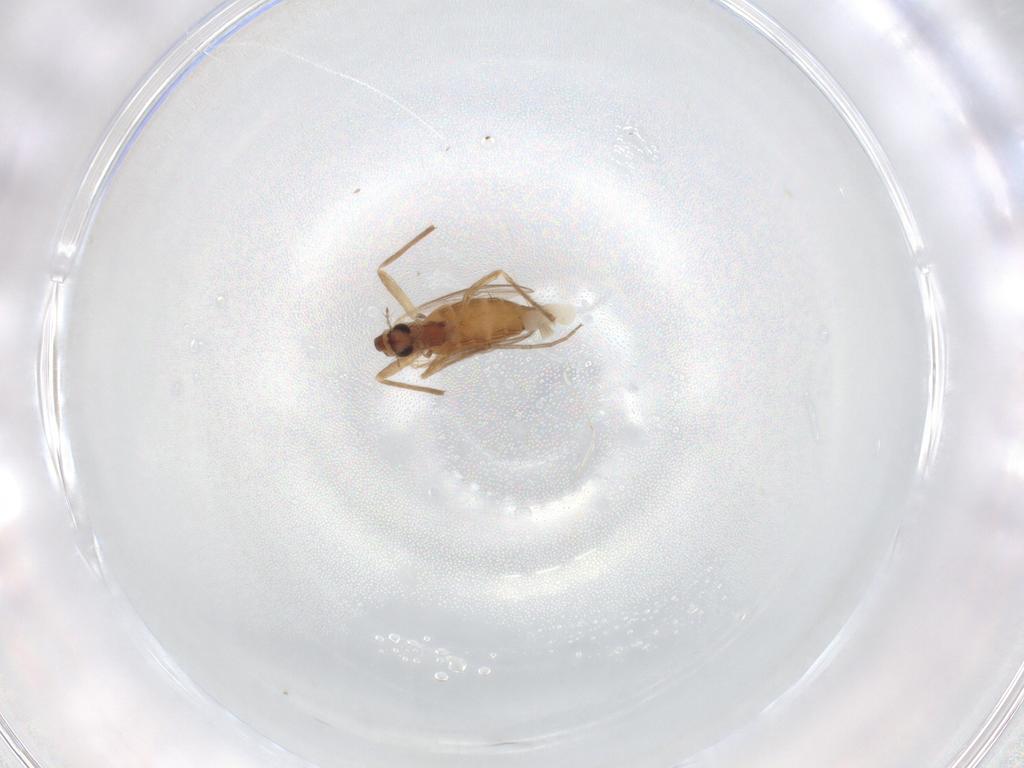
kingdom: Animalia
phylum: Arthropoda
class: Insecta
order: Diptera
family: Chironomidae
